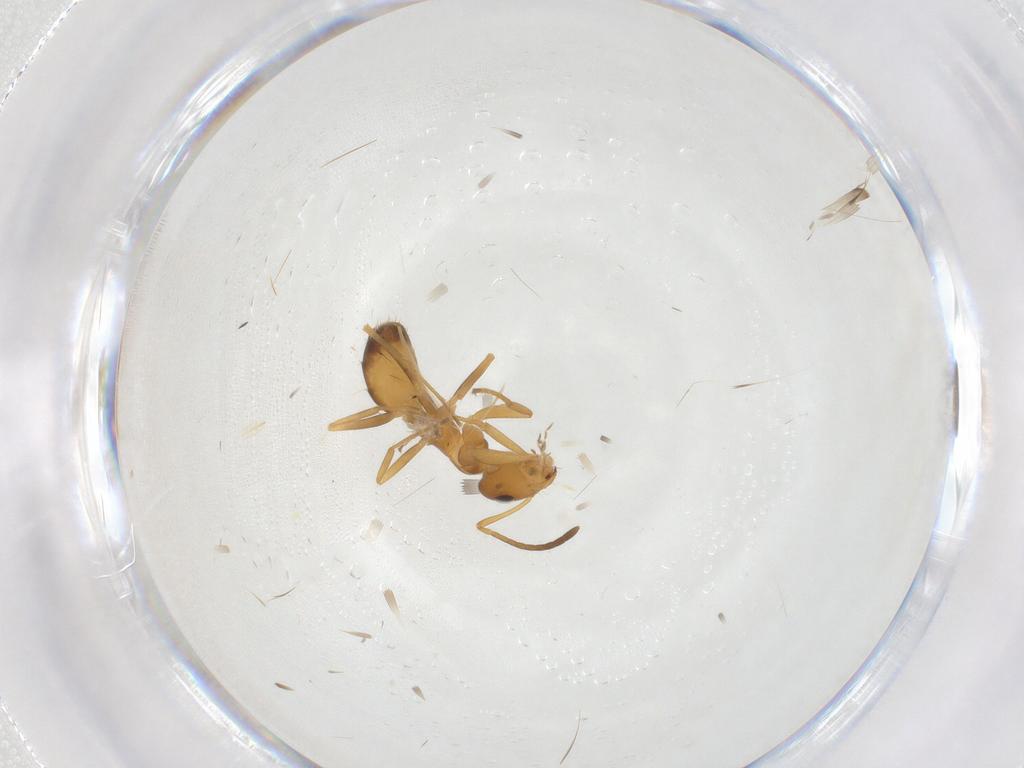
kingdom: Animalia
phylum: Arthropoda
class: Insecta
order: Hymenoptera
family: Formicidae
